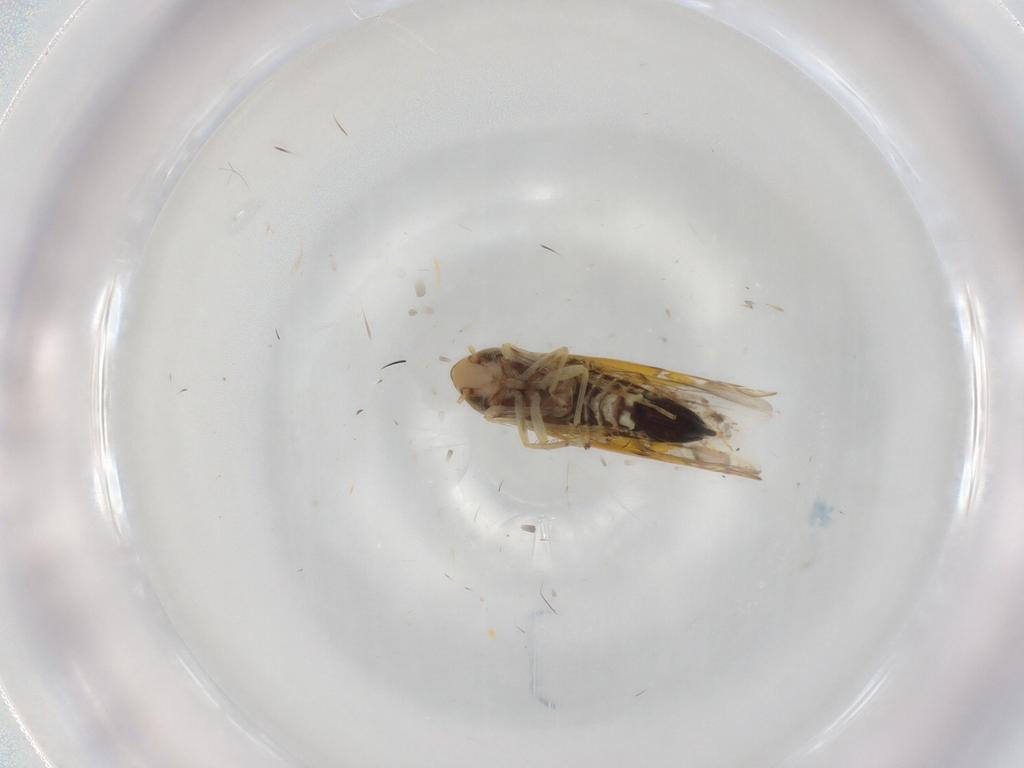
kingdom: Animalia
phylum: Arthropoda
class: Insecta
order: Hemiptera
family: Cicadellidae
